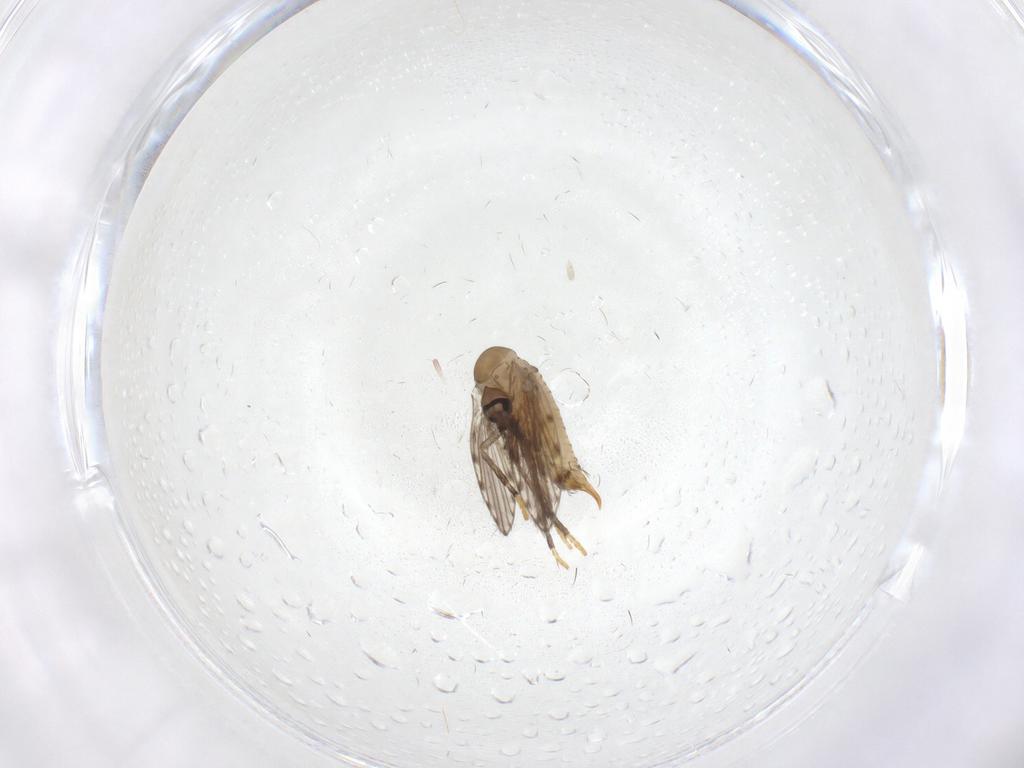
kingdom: Animalia
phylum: Arthropoda
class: Insecta
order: Diptera
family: Psychodidae
